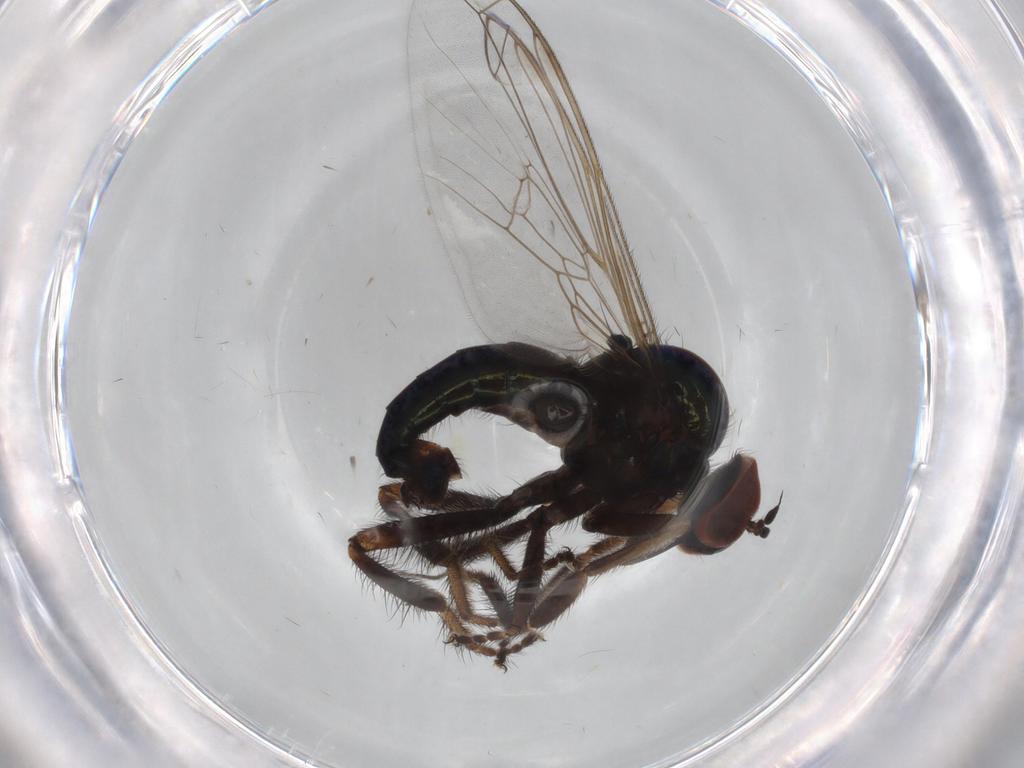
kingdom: Animalia
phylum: Arthropoda
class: Insecta
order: Diptera
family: Empididae
